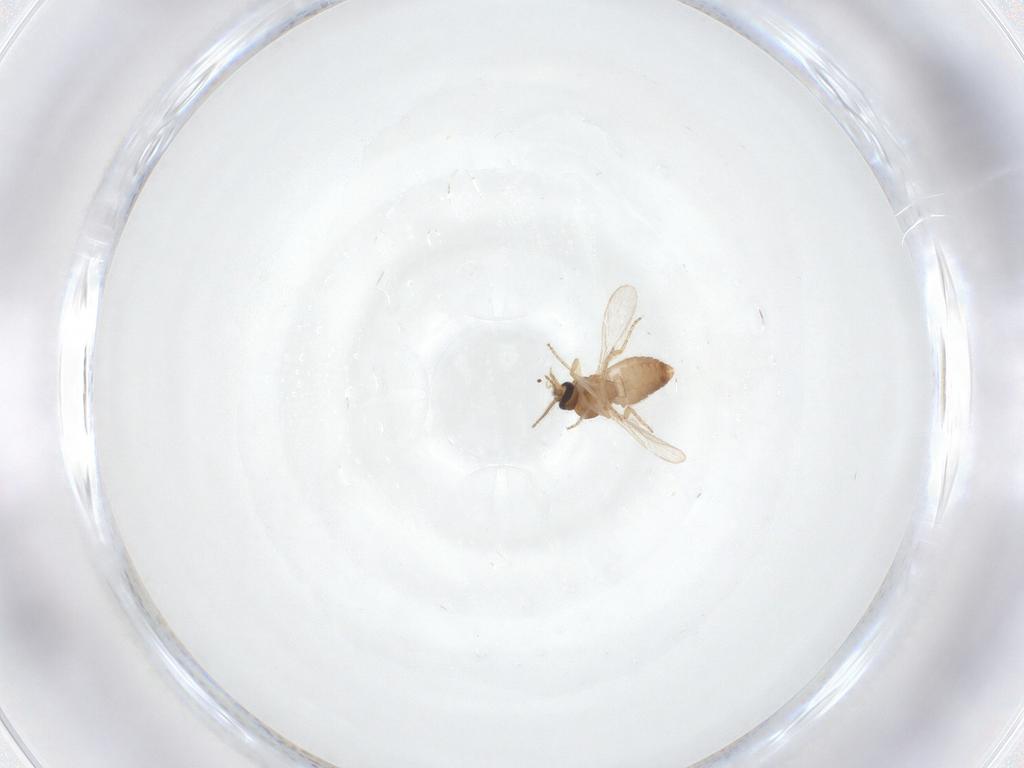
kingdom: Animalia
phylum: Arthropoda
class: Insecta
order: Diptera
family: Ceratopogonidae
